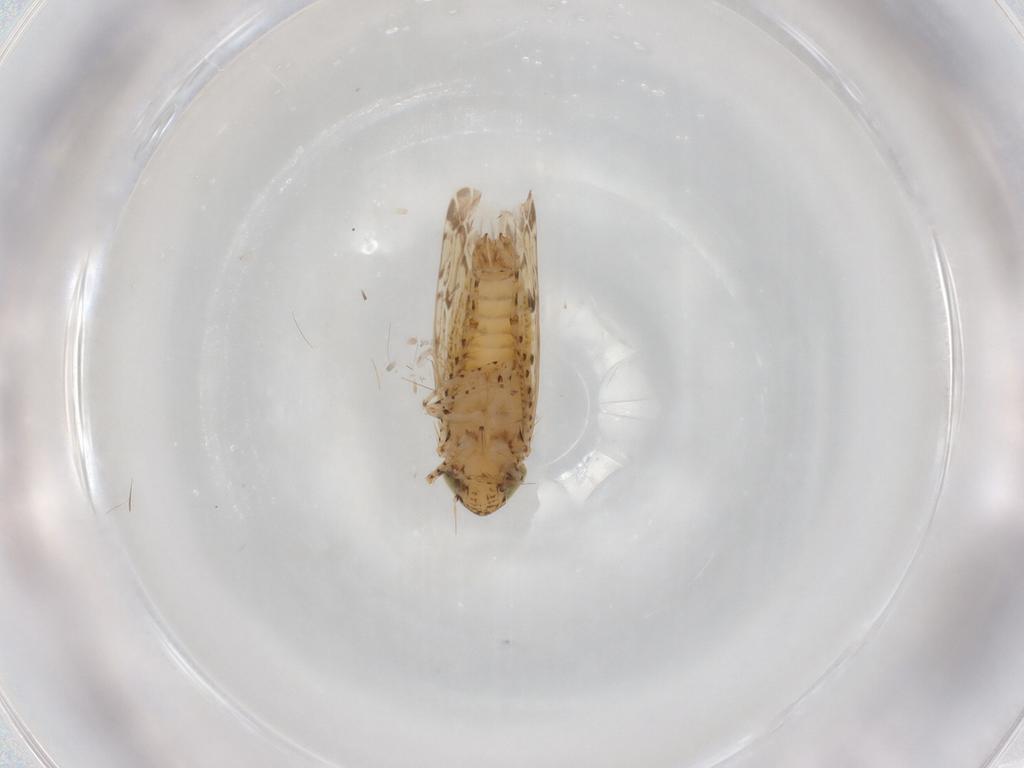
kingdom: Animalia
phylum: Arthropoda
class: Insecta
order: Hemiptera
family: Cicadellidae
